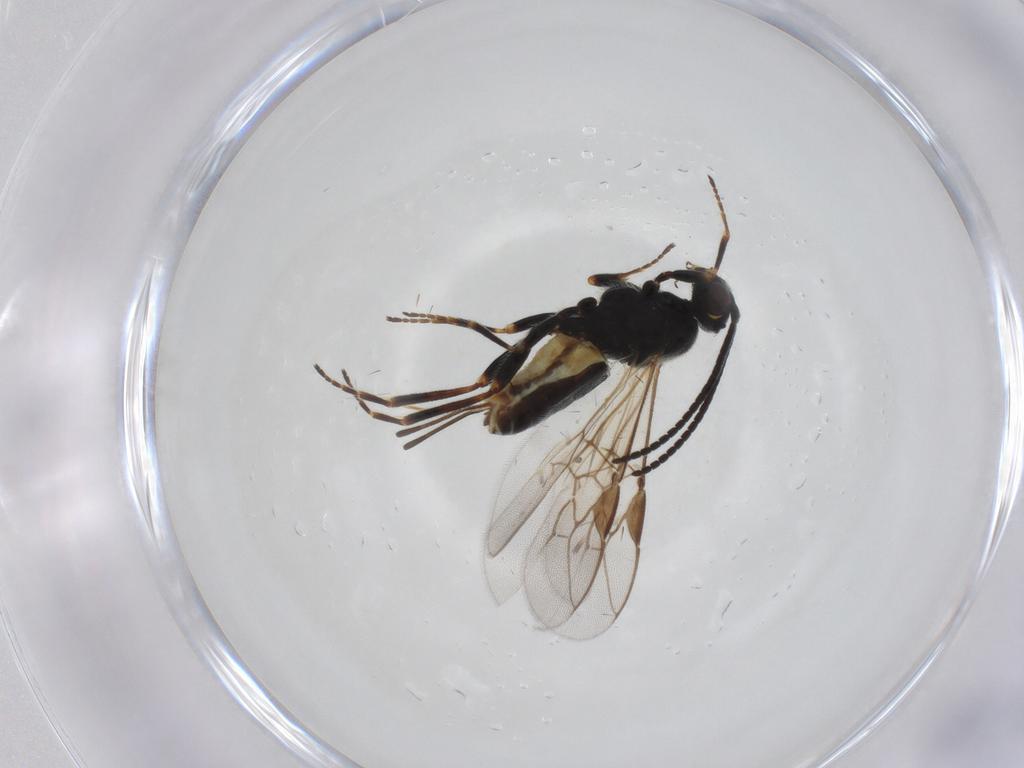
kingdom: Animalia
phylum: Arthropoda
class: Insecta
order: Hymenoptera
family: Braconidae
